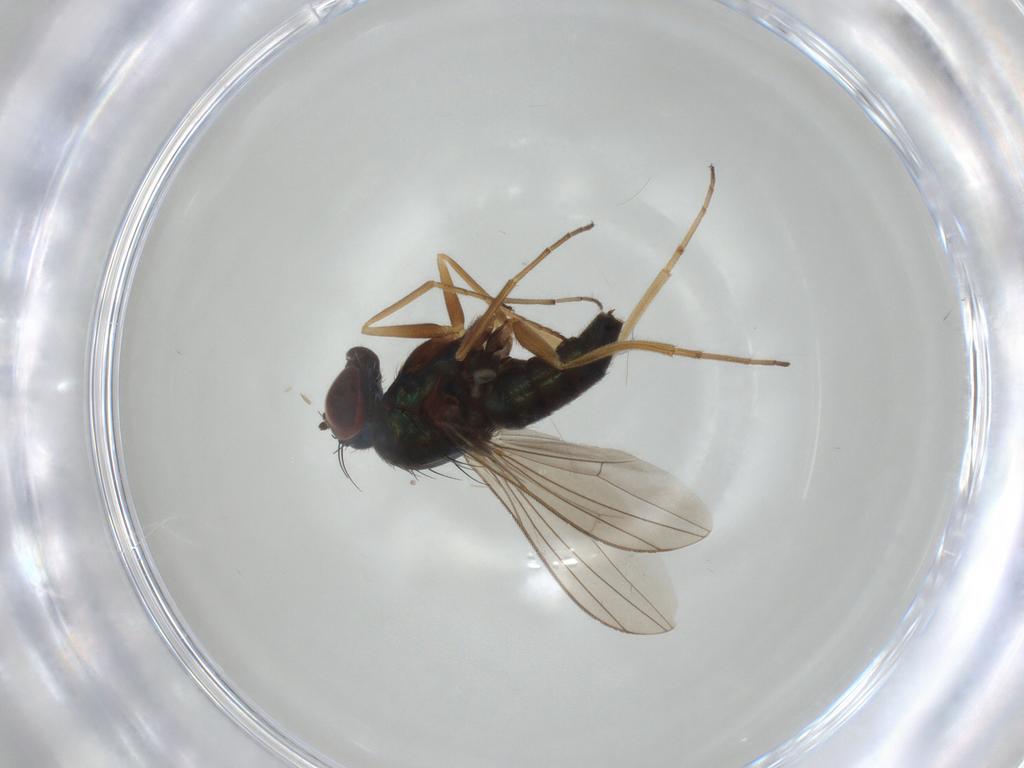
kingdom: Animalia
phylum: Arthropoda
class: Insecta
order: Diptera
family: Dolichopodidae
